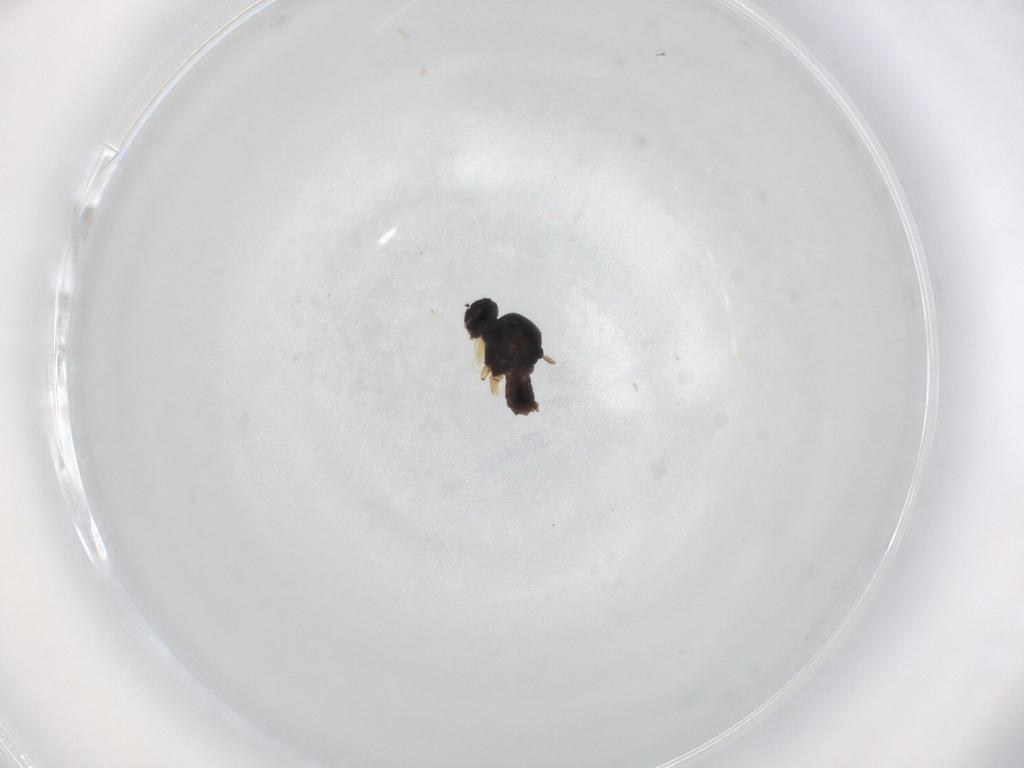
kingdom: Animalia
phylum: Arthropoda
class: Insecta
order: Diptera
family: Hybotidae
